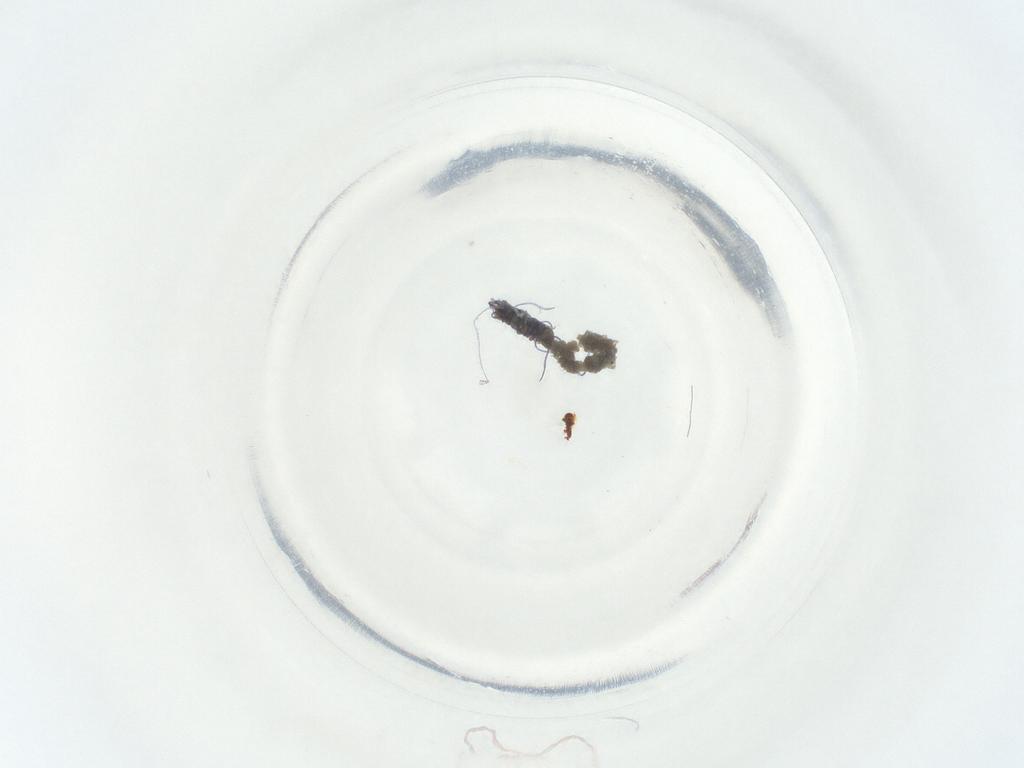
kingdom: Animalia
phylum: Arthropoda
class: Arachnida
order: Mesostigmata
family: Phytoseiidae
